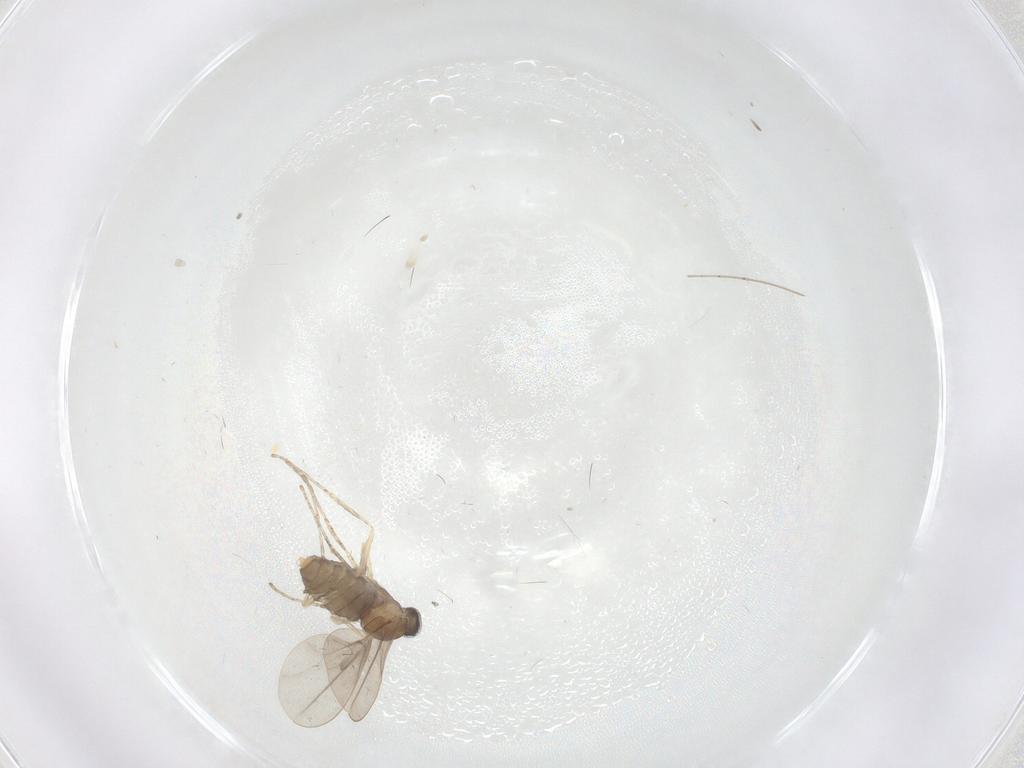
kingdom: Animalia
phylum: Arthropoda
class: Insecta
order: Diptera
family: Cecidomyiidae
